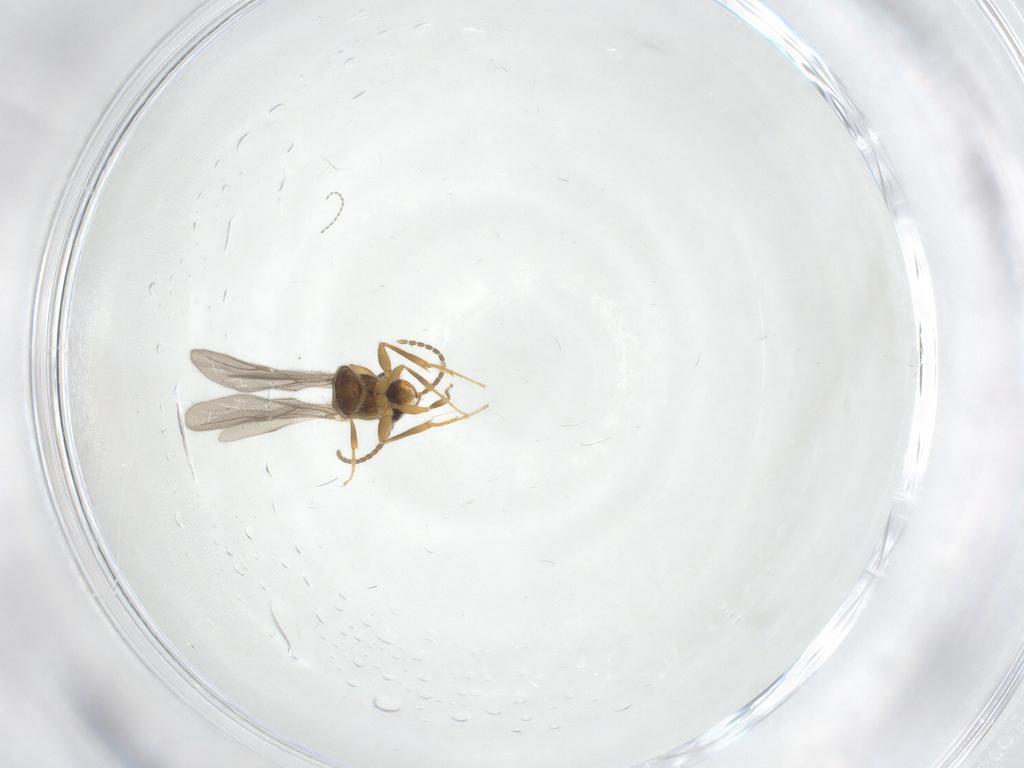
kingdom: Animalia
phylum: Arthropoda
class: Insecta
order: Hymenoptera
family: Bethylidae
